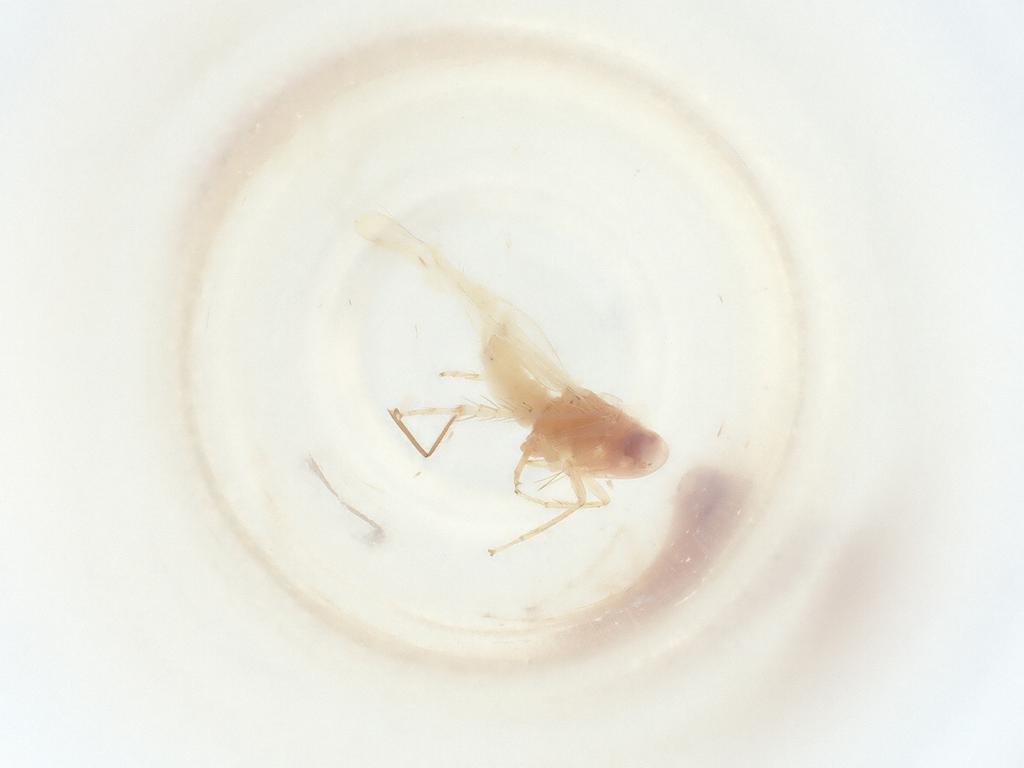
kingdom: Animalia
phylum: Arthropoda
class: Insecta
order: Hemiptera
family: Cicadellidae
